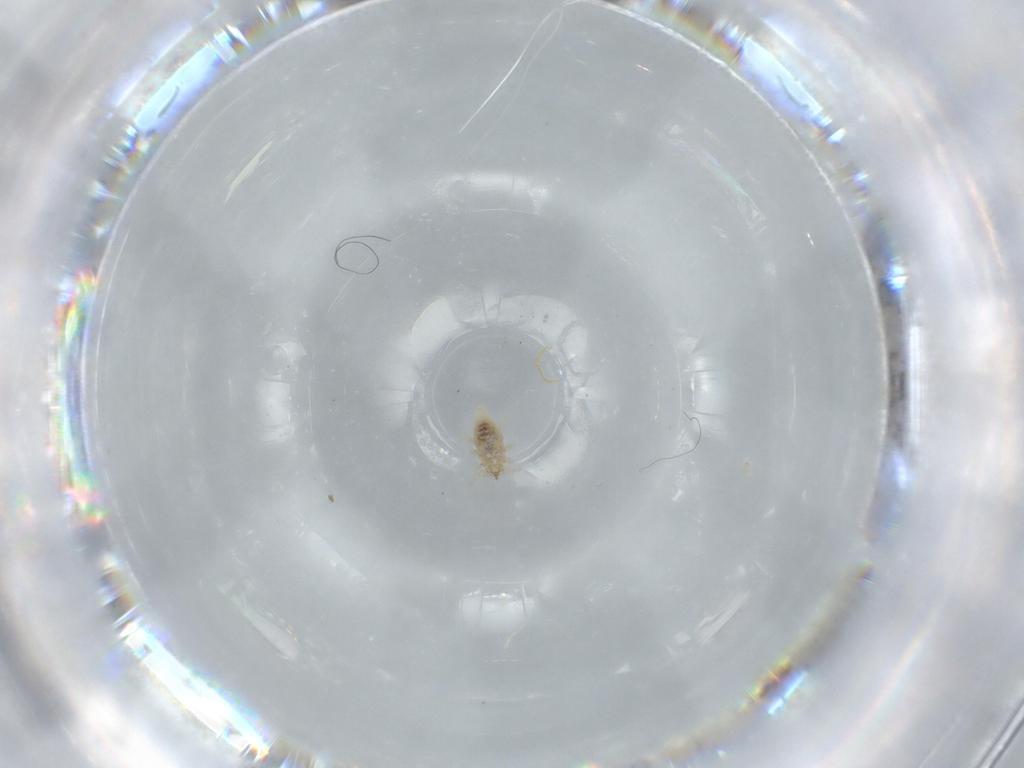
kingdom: Animalia
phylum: Arthropoda
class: Insecta
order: Neuroptera
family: Coniopterygidae
